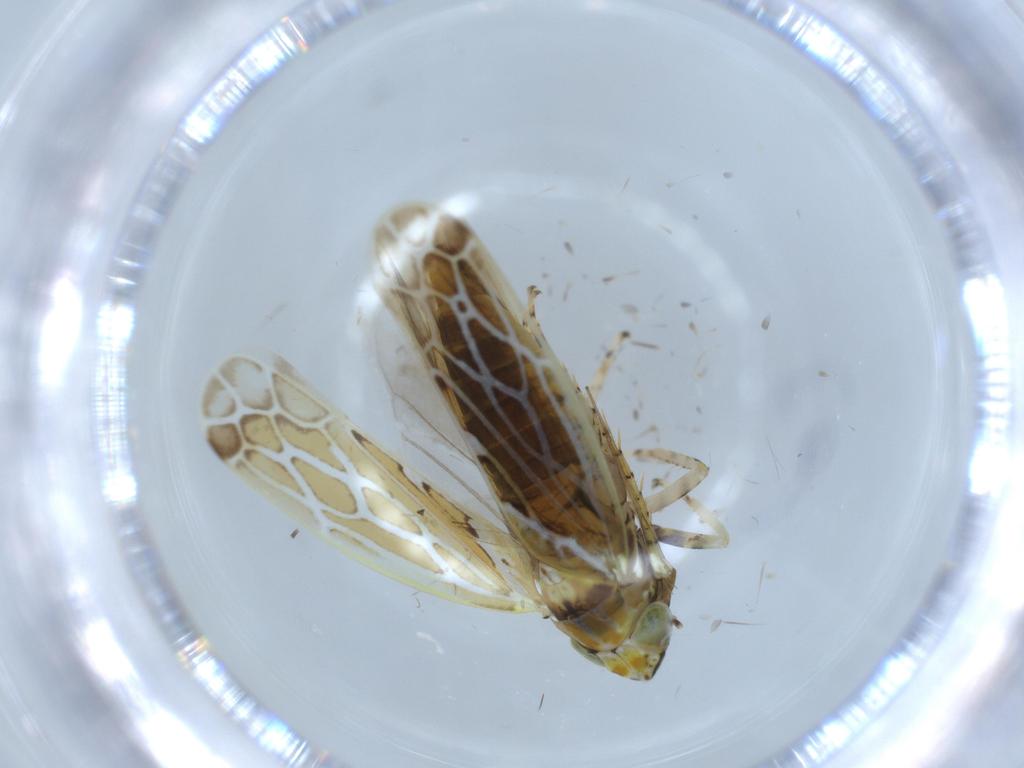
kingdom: Animalia
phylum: Arthropoda
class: Insecta
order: Hemiptera
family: Cicadellidae
